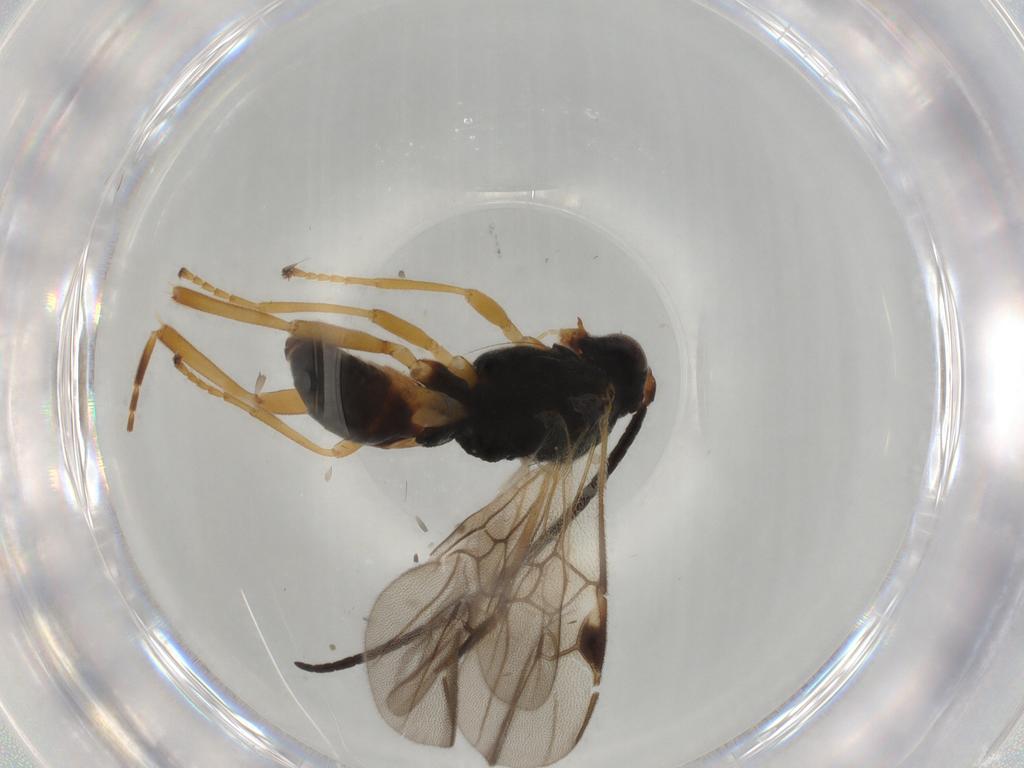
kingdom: Animalia
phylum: Arthropoda
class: Insecta
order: Hymenoptera
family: Braconidae
